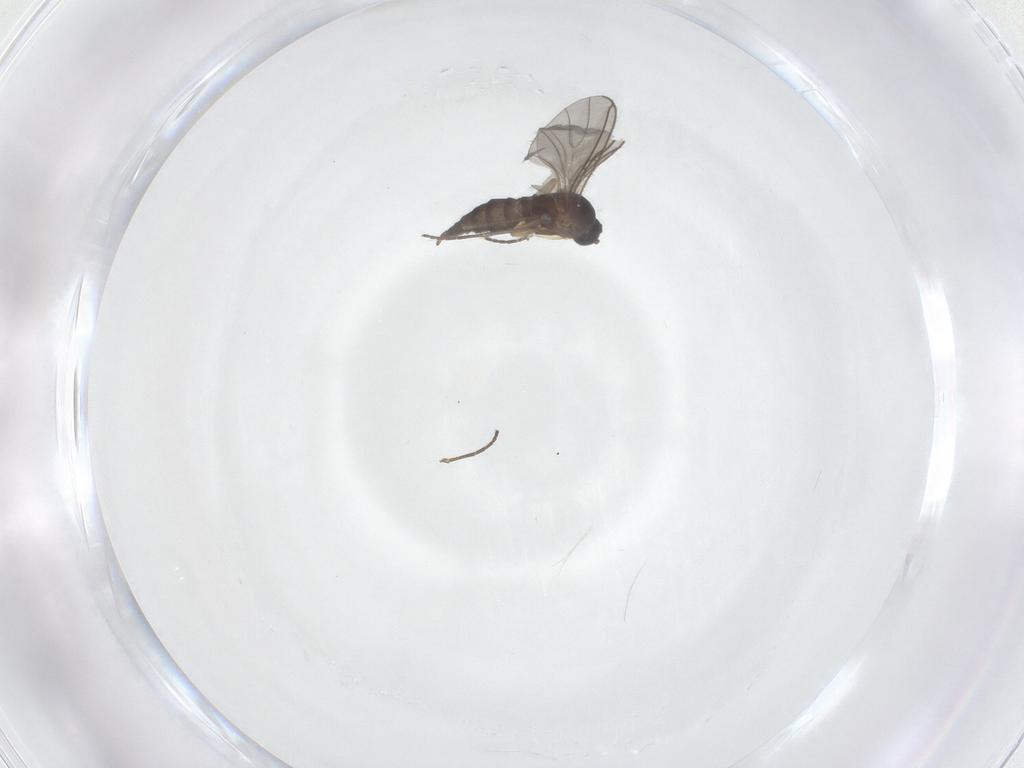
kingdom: Animalia
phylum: Arthropoda
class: Insecta
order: Diptera
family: Sciaridae
